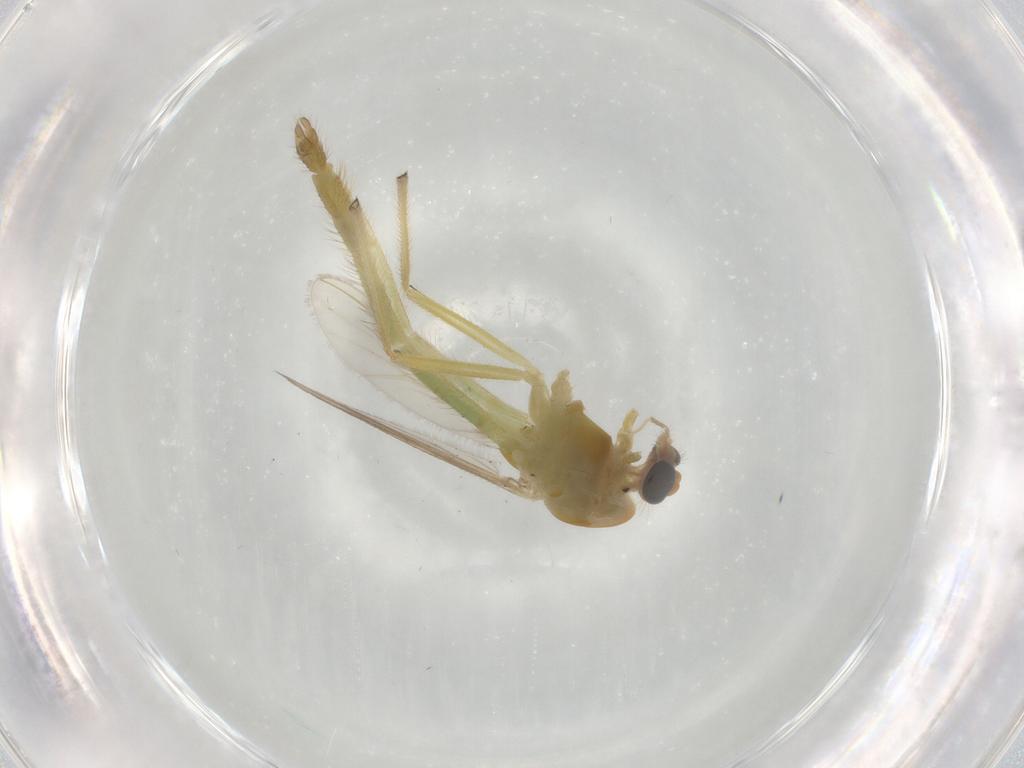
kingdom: Animalia
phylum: Arthropoda
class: Insecta
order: Diptera
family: Chironomidae
